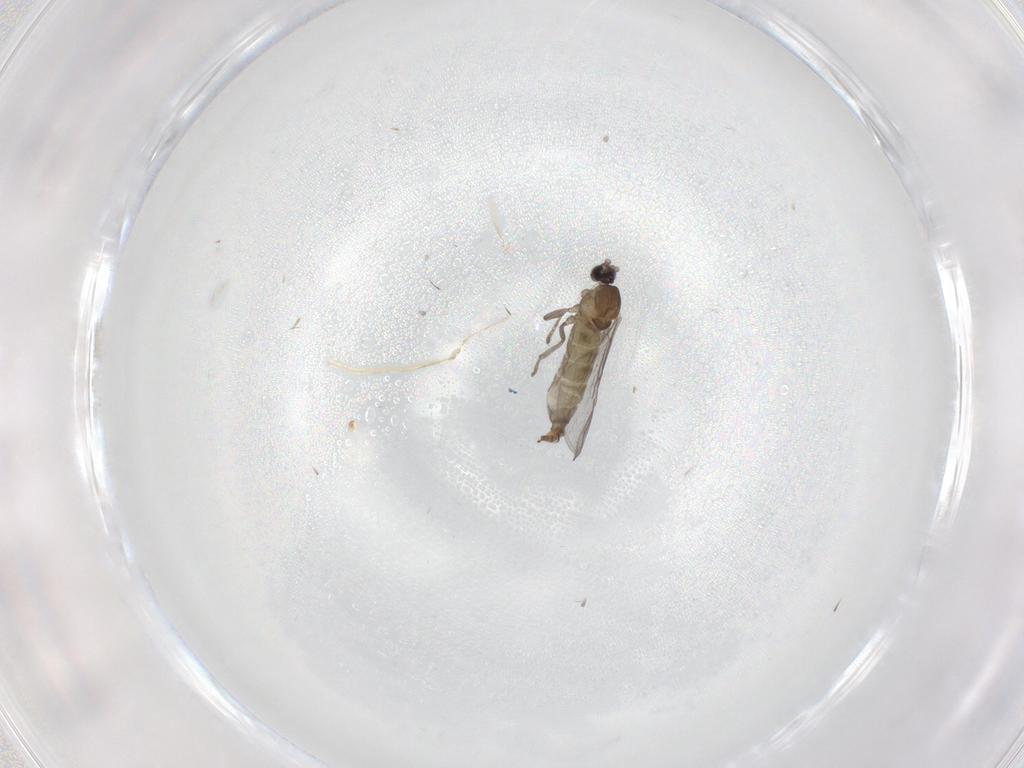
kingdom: Animalia
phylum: Arthropoda
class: Insecta
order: Diptera
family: Cecidomyiidae
